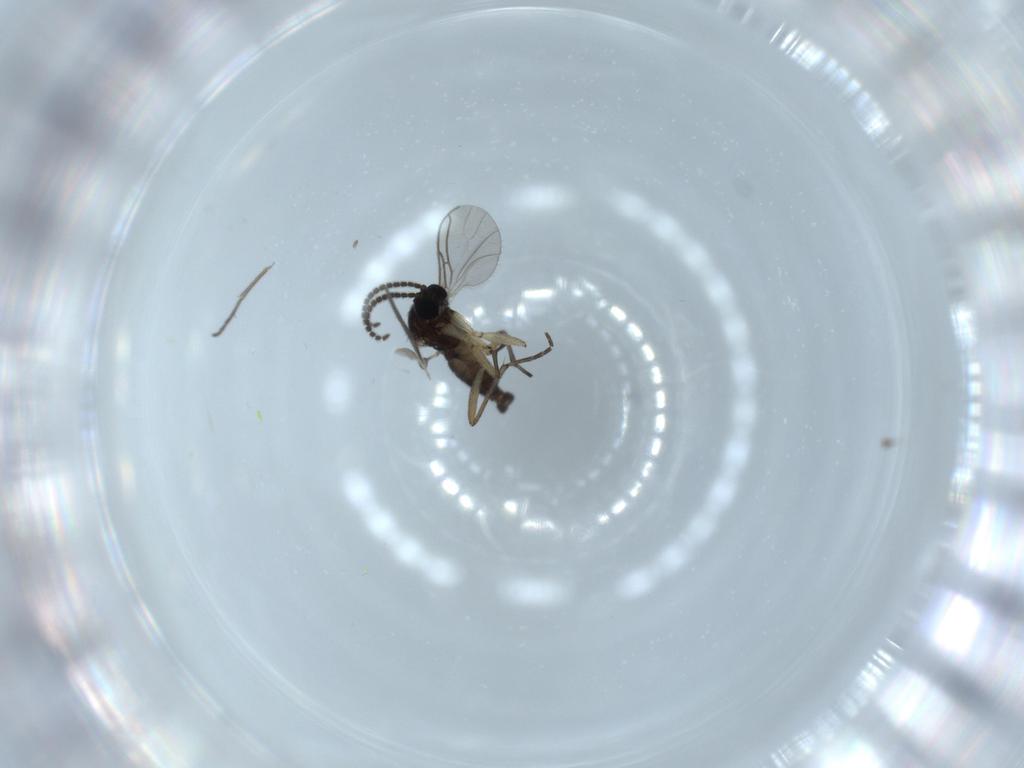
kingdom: Animalia
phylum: Arthropoda
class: Insecta
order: Diptera
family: Sciaridae
